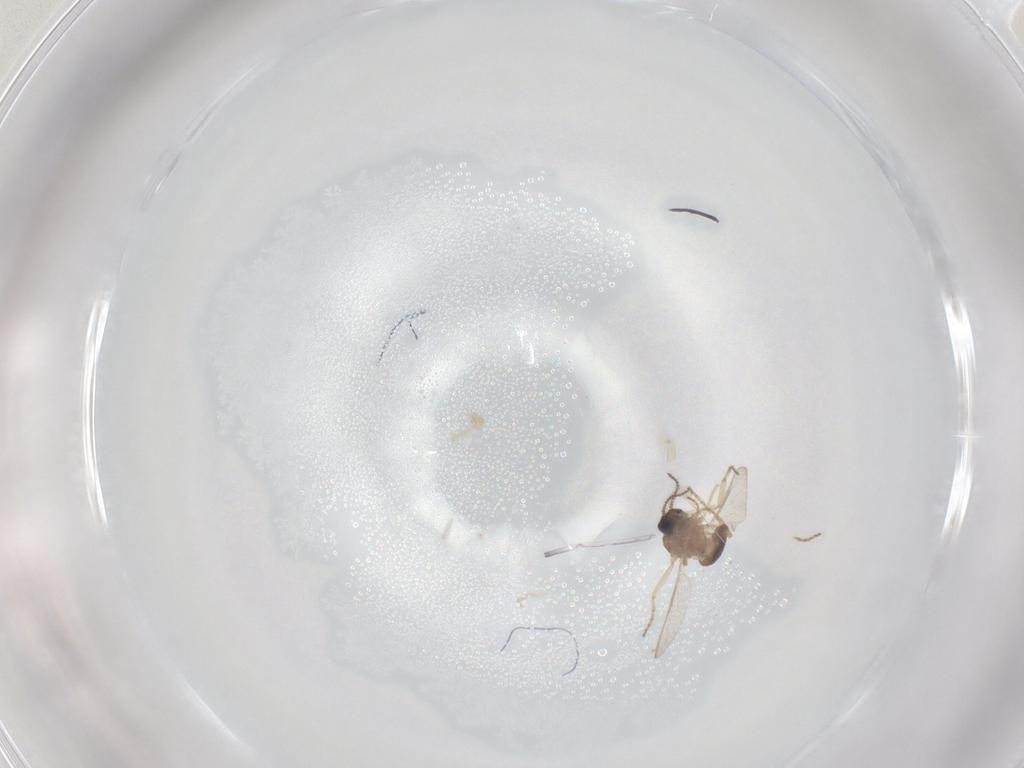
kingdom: Animalia
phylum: Arthropoda
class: Insecta
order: Diptera
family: Ceratopogonidae
